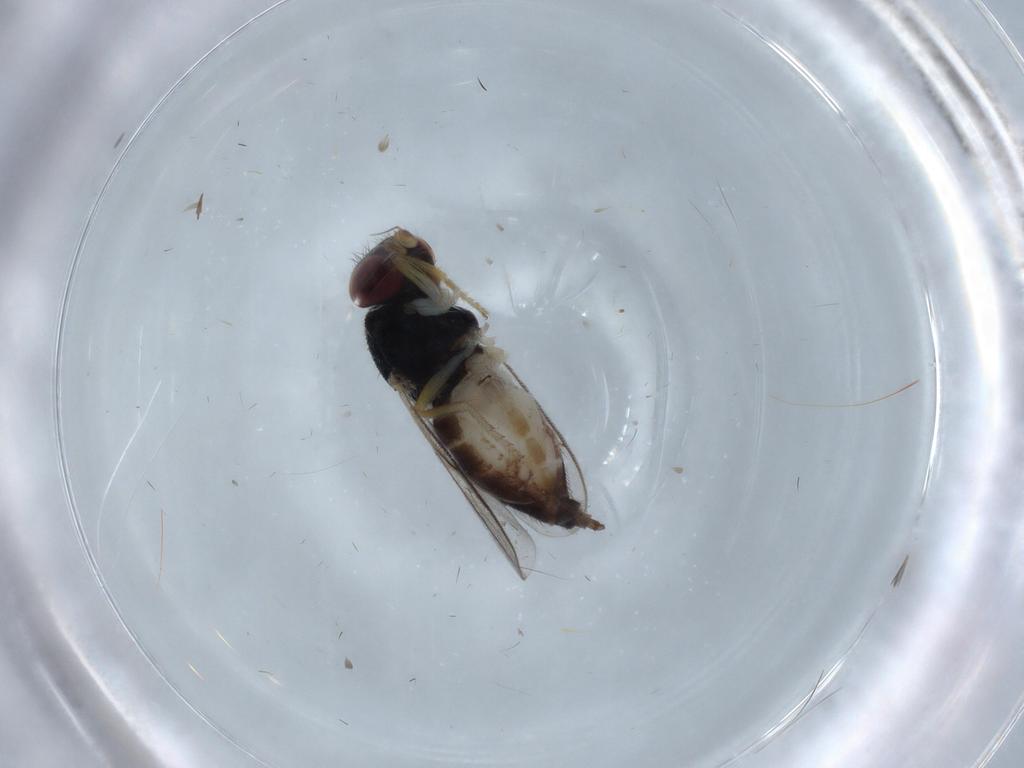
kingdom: Animalia
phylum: Arthropoda
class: Insecta
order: Diptera
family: Chloropidae
